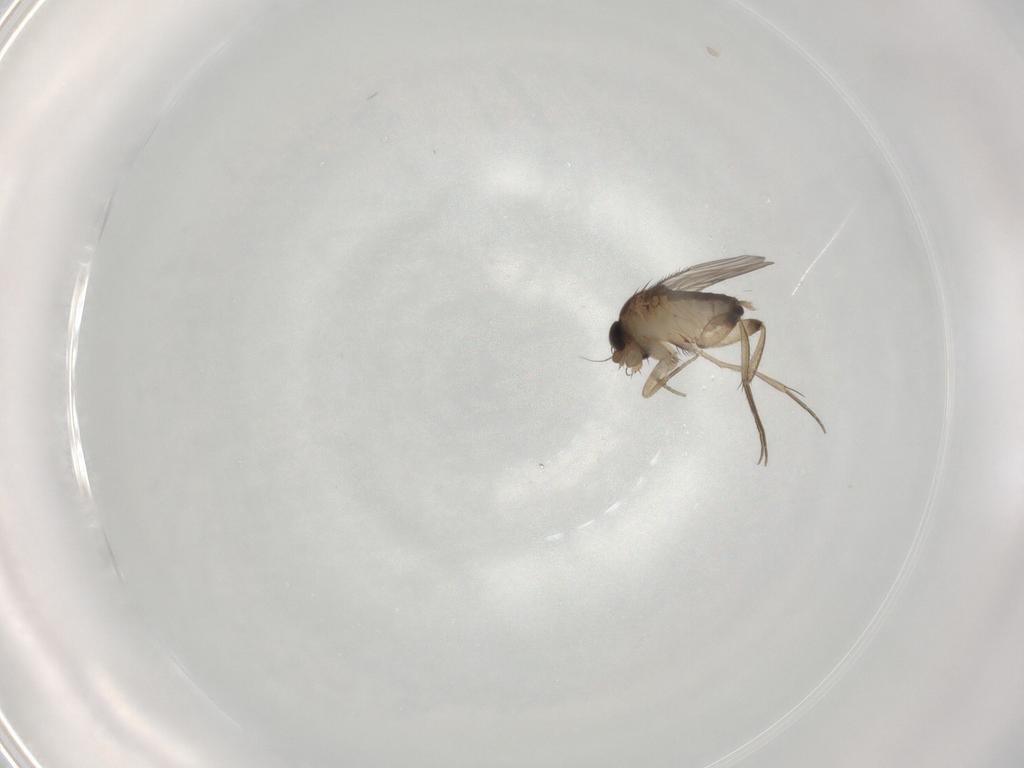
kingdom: Animalia
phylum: Arthropoda
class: Insecta
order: Diptera
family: Phoridae
